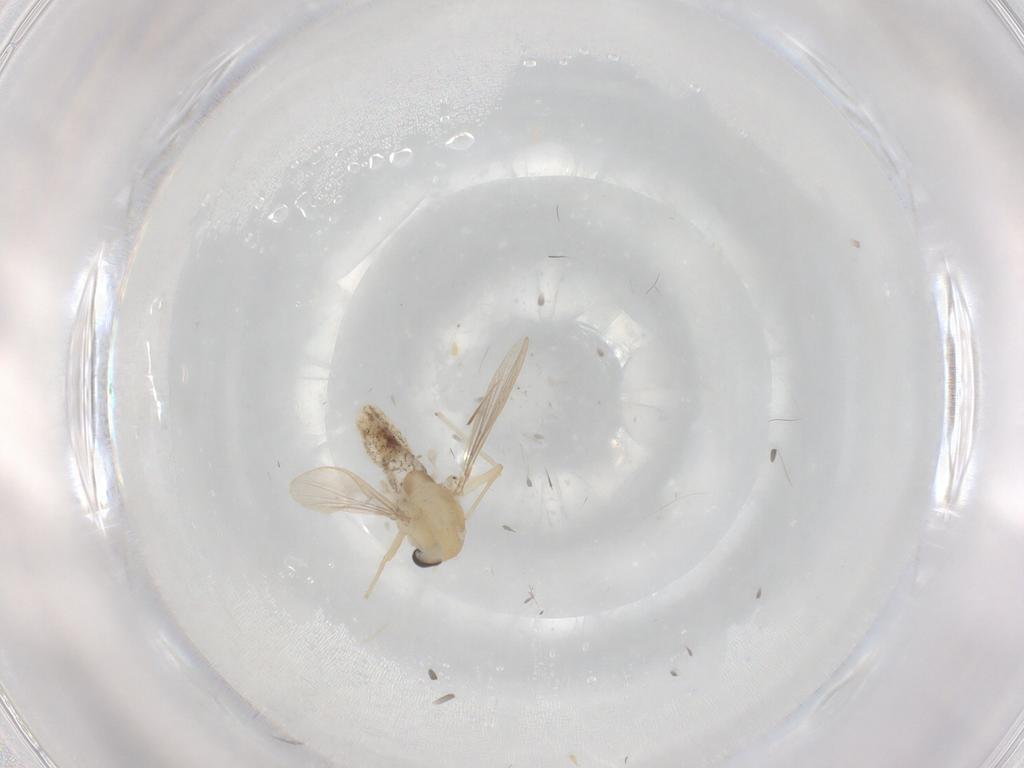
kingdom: Animalia
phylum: Arthropoda
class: Insecta
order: Diptera
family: Chironomidae
